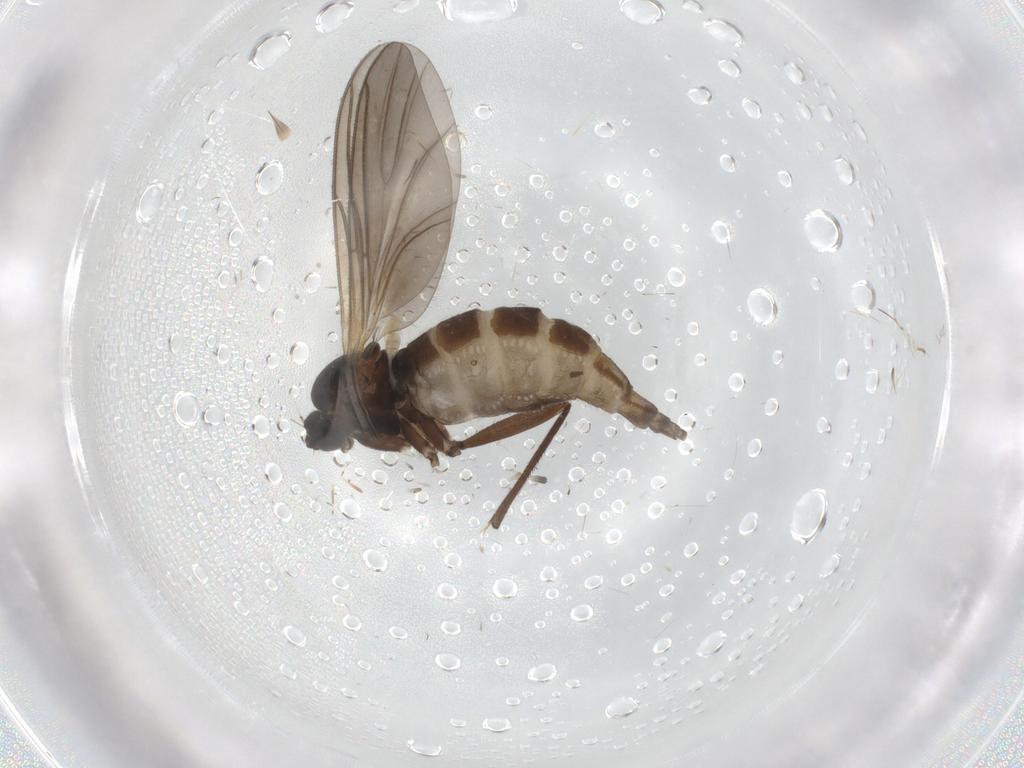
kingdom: Animalia
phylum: Arthropoda
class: Insecta
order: Diptera
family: Sciaridae
